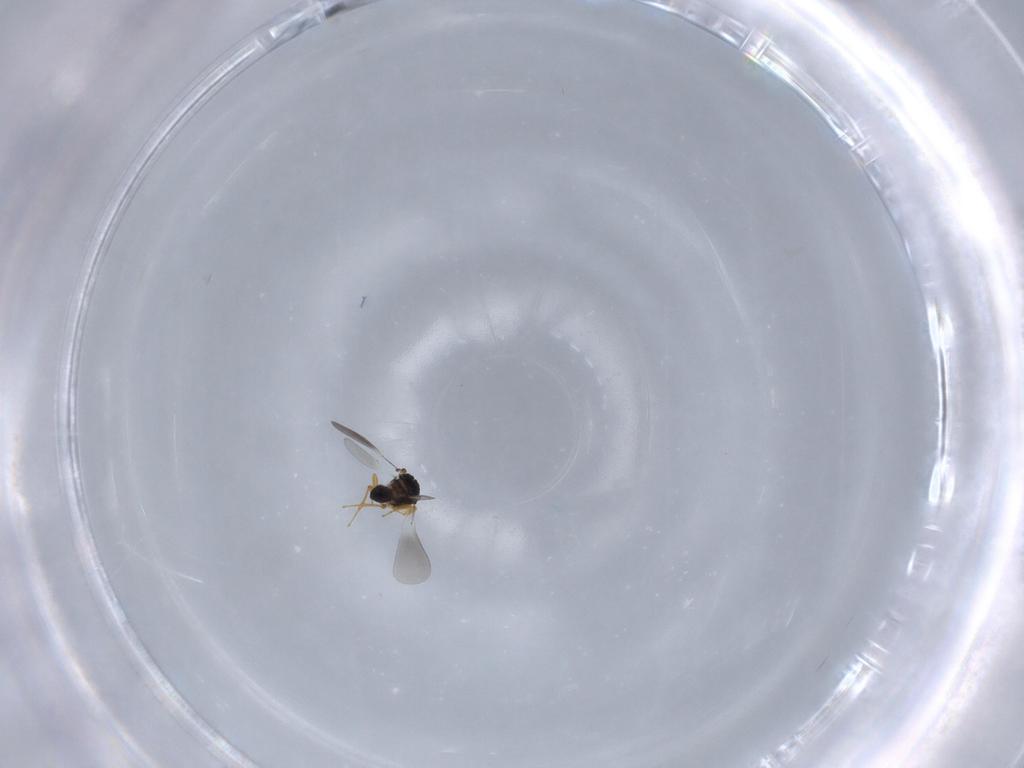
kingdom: Animalia
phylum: Arthropoda
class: Insecta
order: Hymenoptera
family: Platygastridae
